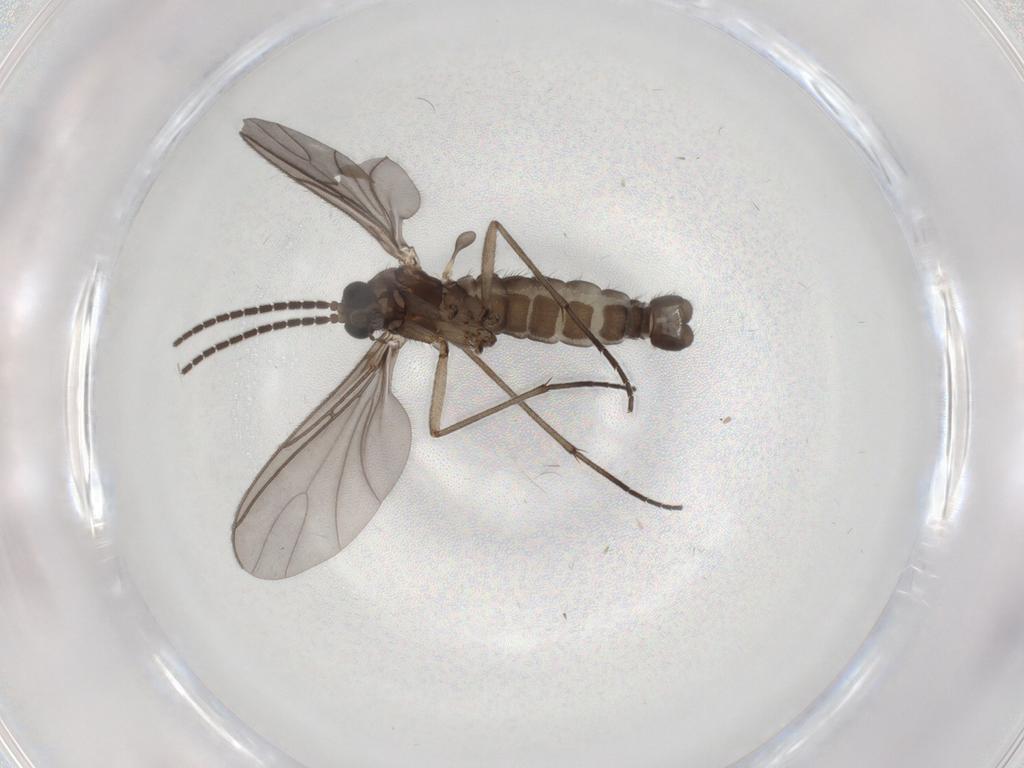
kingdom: Animalia
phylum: Arthropoda
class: Insecta
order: Diptera
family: Sciaridae
